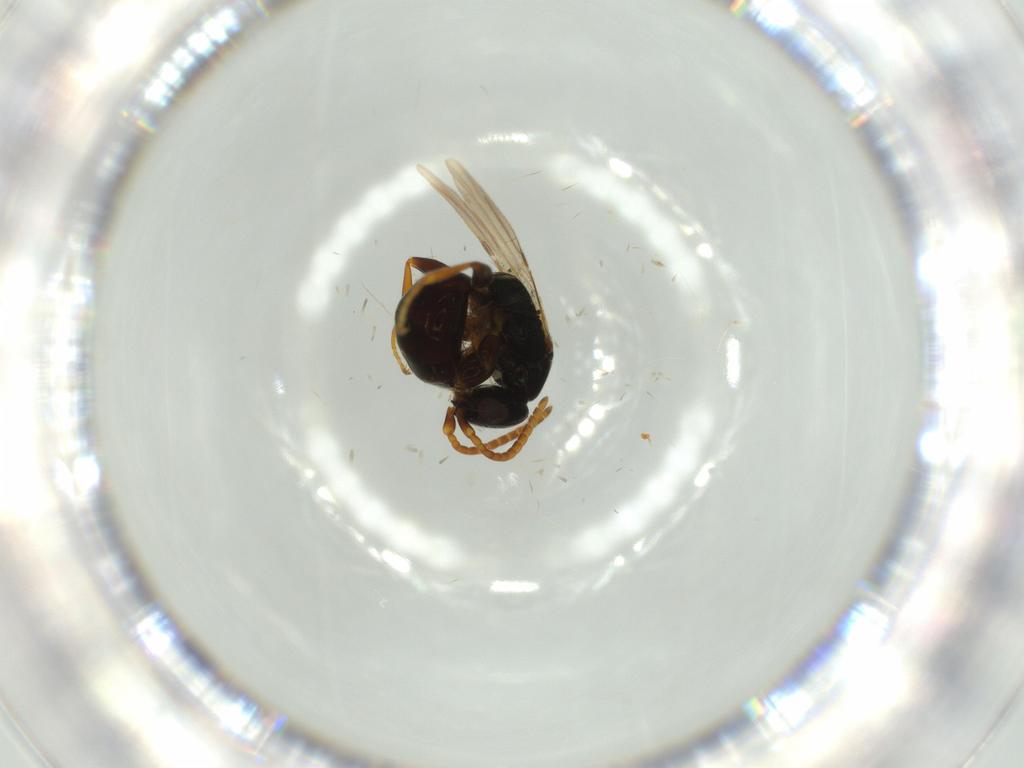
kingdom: Animalia
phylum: Arthropoda
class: Insecta
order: Hymenoptera
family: Bethylidae
